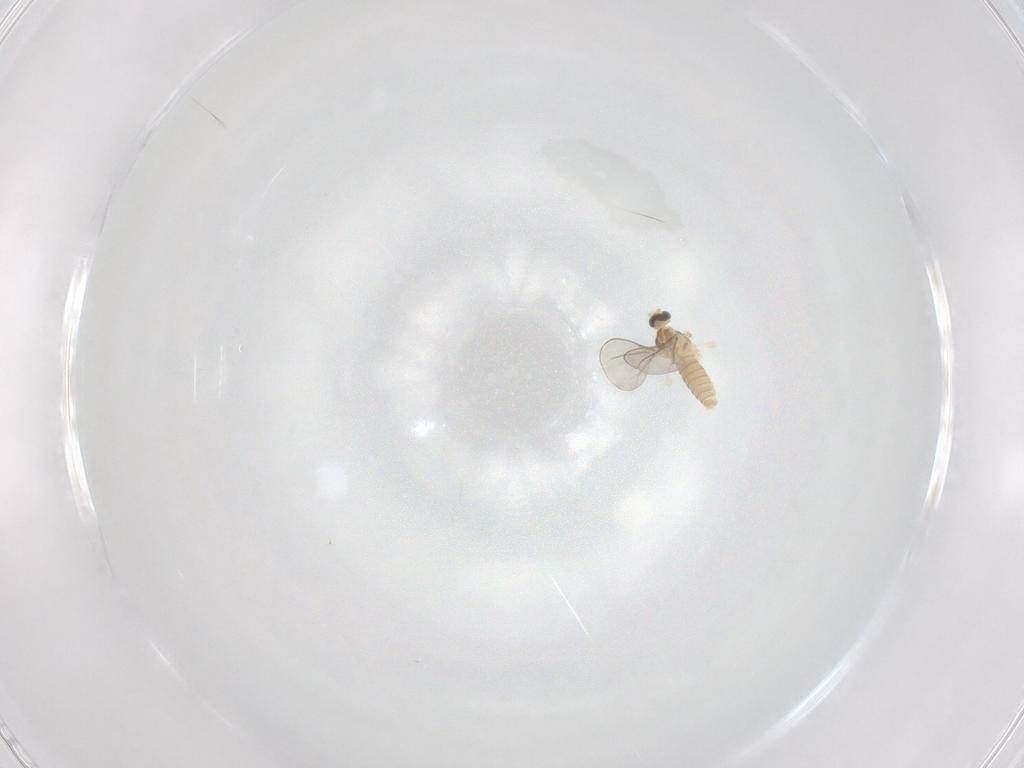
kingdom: Animalia
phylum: Arthropoda
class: Insecta
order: Diptera
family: Cecidomyiidae
